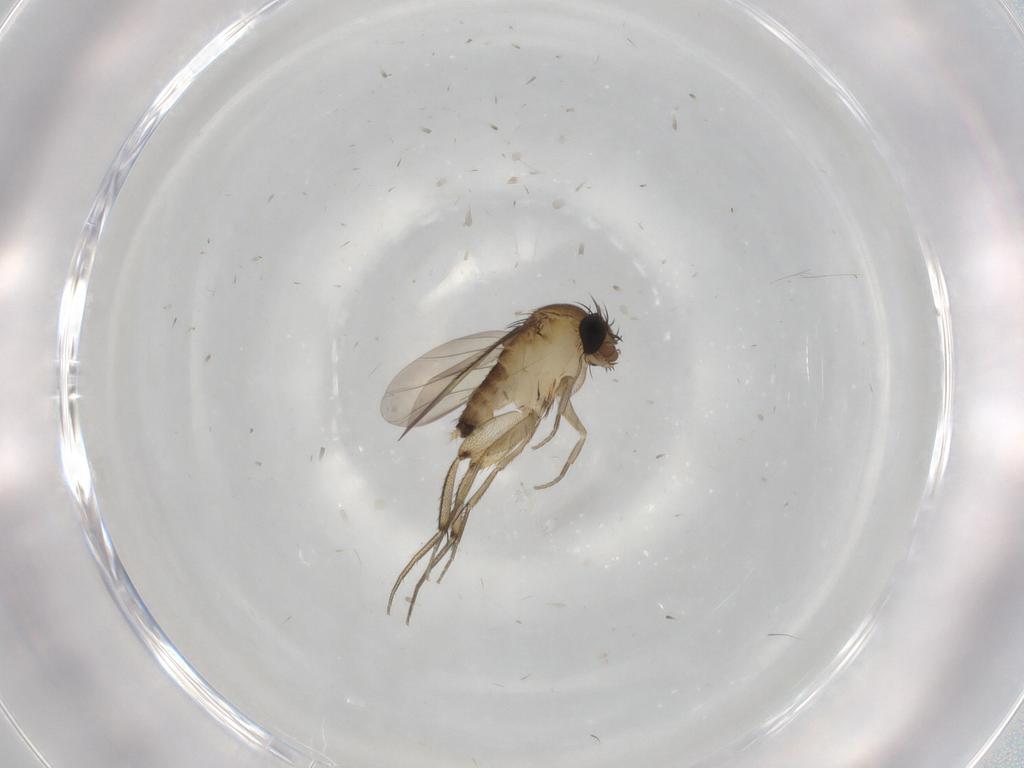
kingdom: Animalia
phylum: Arthropoda
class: Insecta
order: Diptera
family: Phoridae
